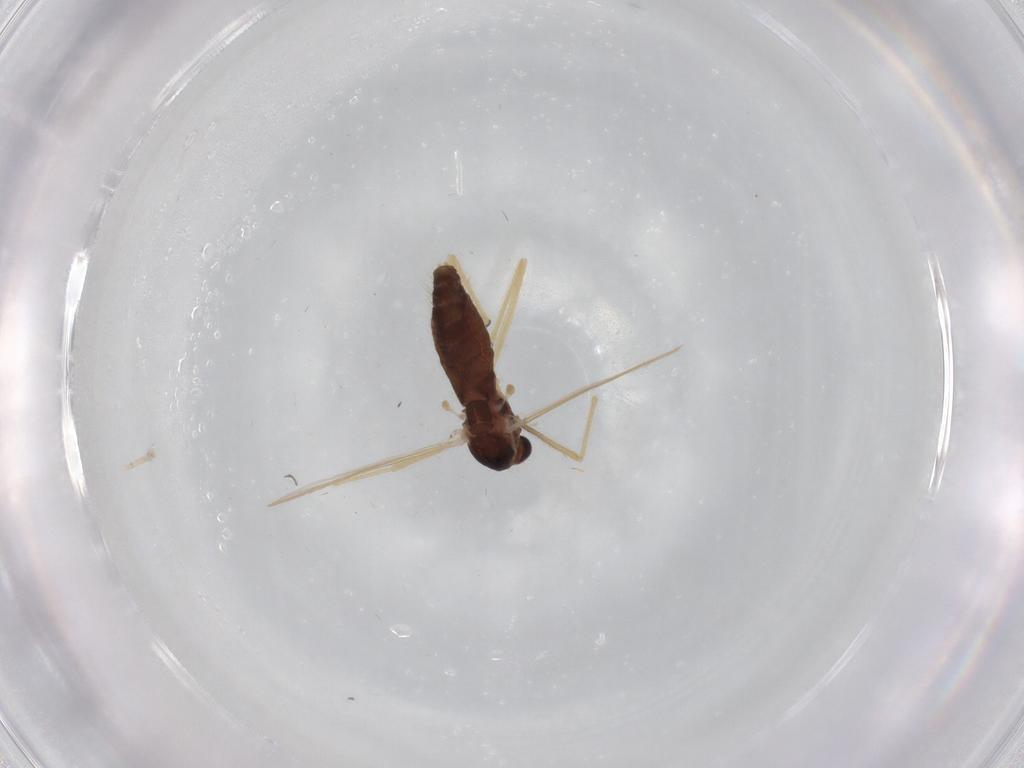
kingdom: Animalia
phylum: Arthropoda
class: Insecta
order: Diptera
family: Chironomidae
